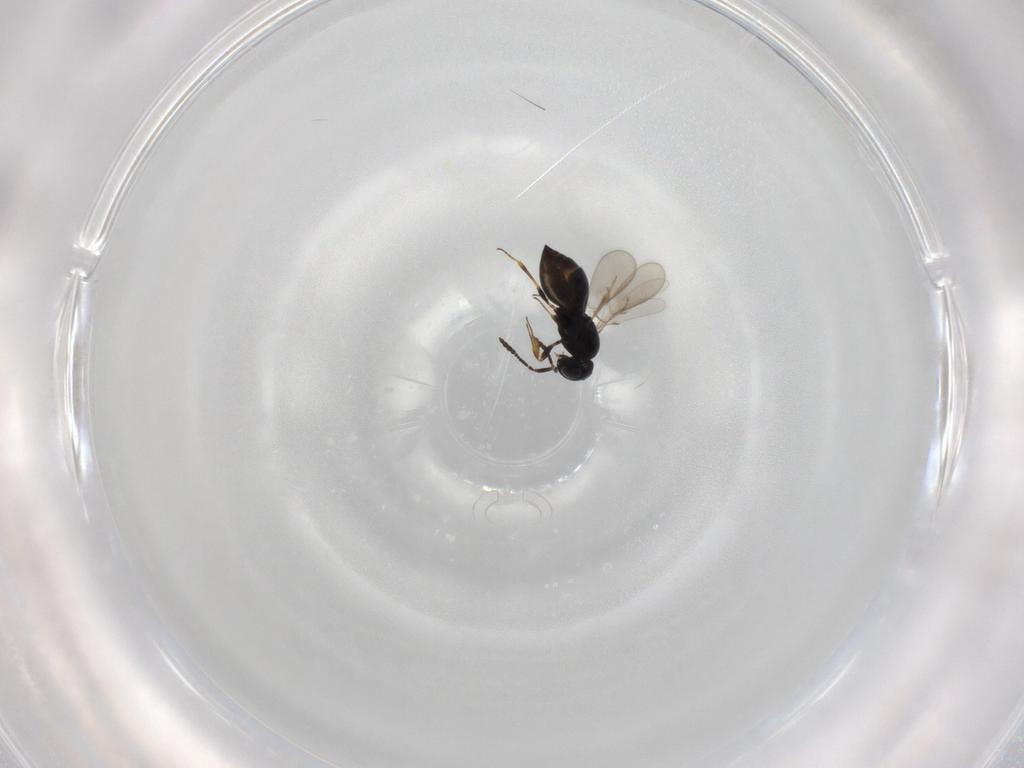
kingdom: Animalia
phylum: Arthropoda
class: Insecta
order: Hymenoptera
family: Scelionidae
